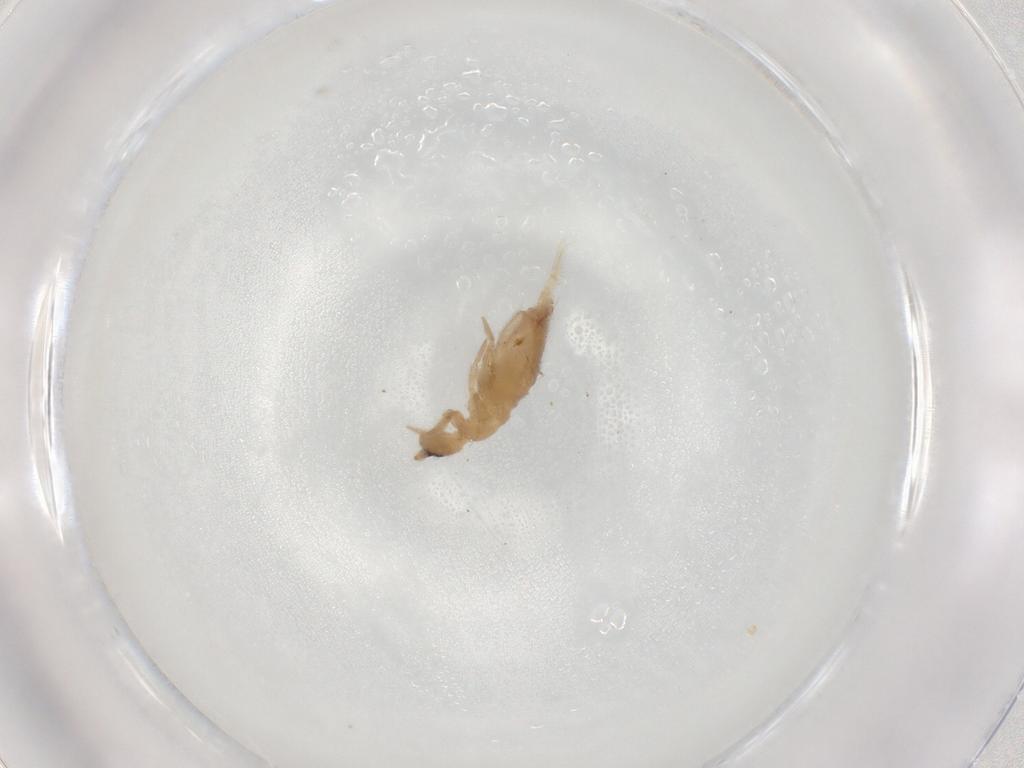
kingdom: Animalia
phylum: Arthropoda
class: Collembola
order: Entomobryomorpha
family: Entomobryidae
